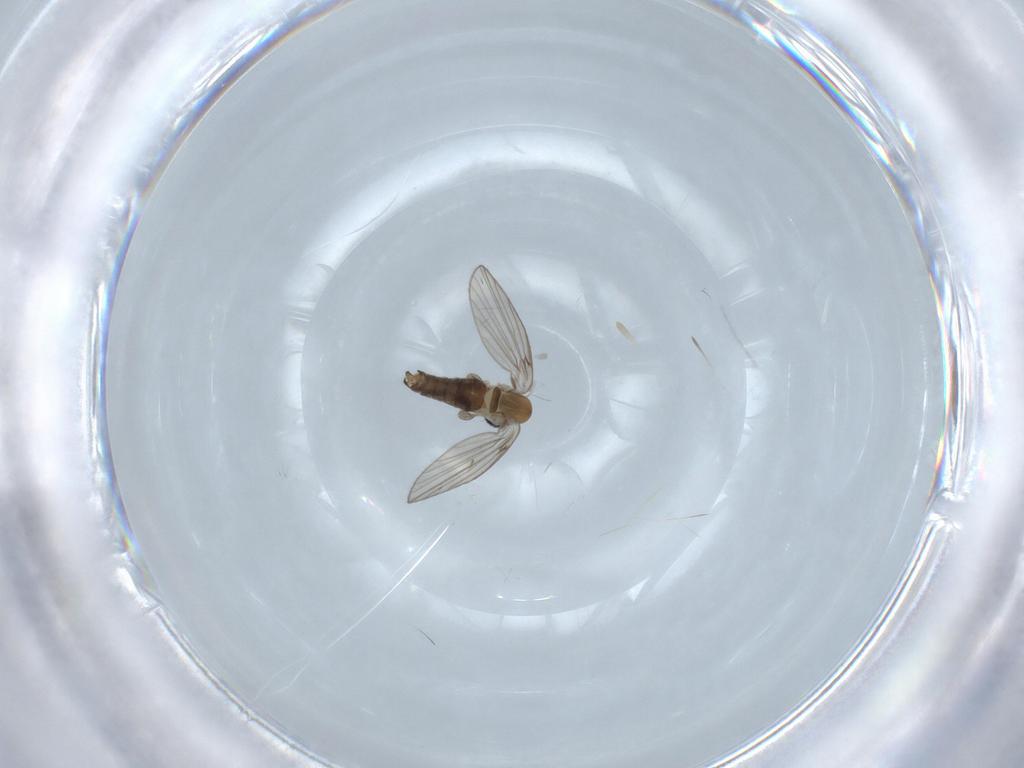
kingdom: Animalia
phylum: Arthropoda
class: Insecta
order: Diptera
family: Psychodidae
